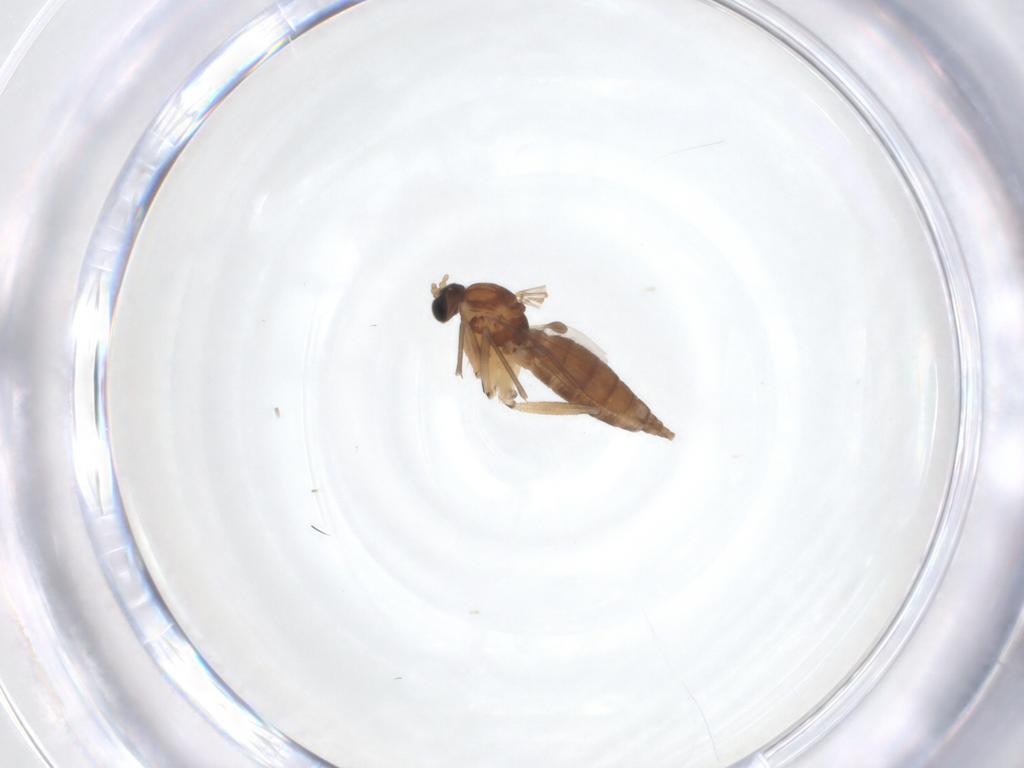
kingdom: Animalia
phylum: Arthropoda
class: Insecta
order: Diptera
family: Sciaridae
